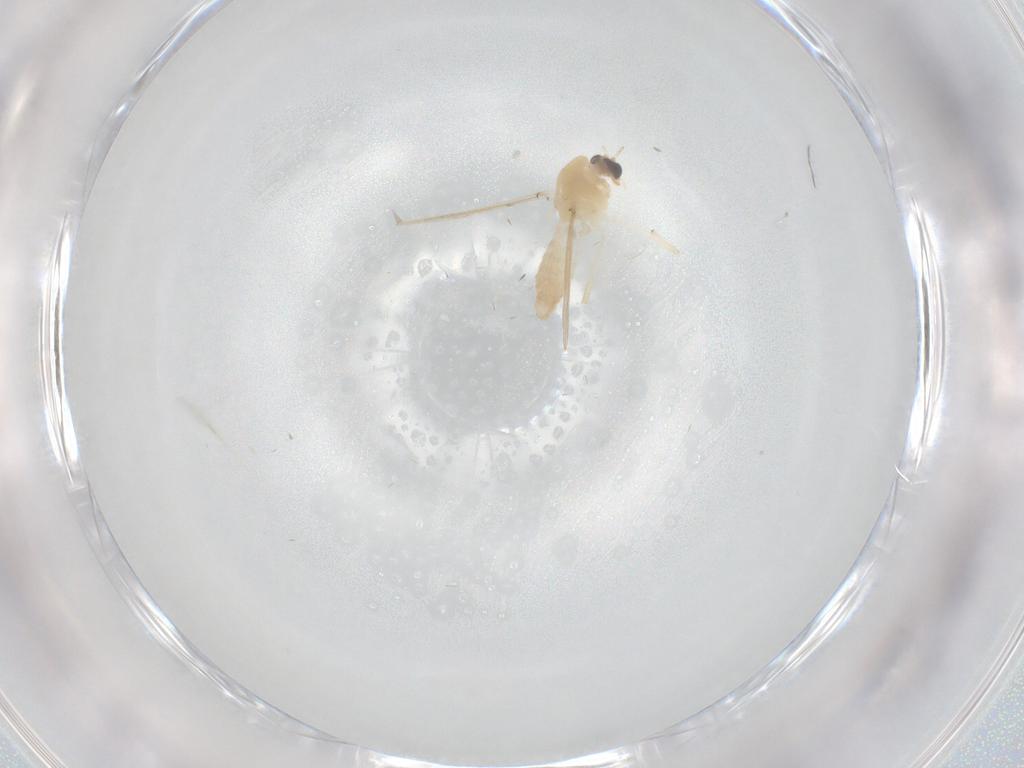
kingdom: Animalia
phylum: Arthropoda
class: Insecta
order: Diptera
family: Chironomidae
